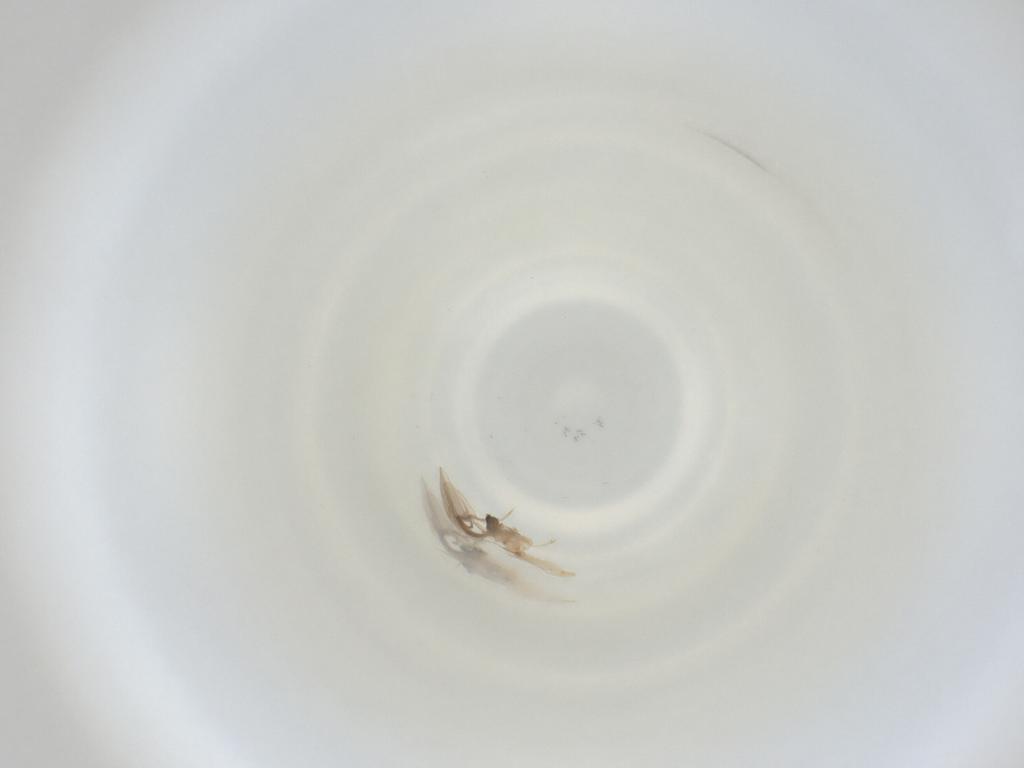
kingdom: Animalia
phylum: Arthropoda
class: Insecta
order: Diptera
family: Cecidomyiidae
